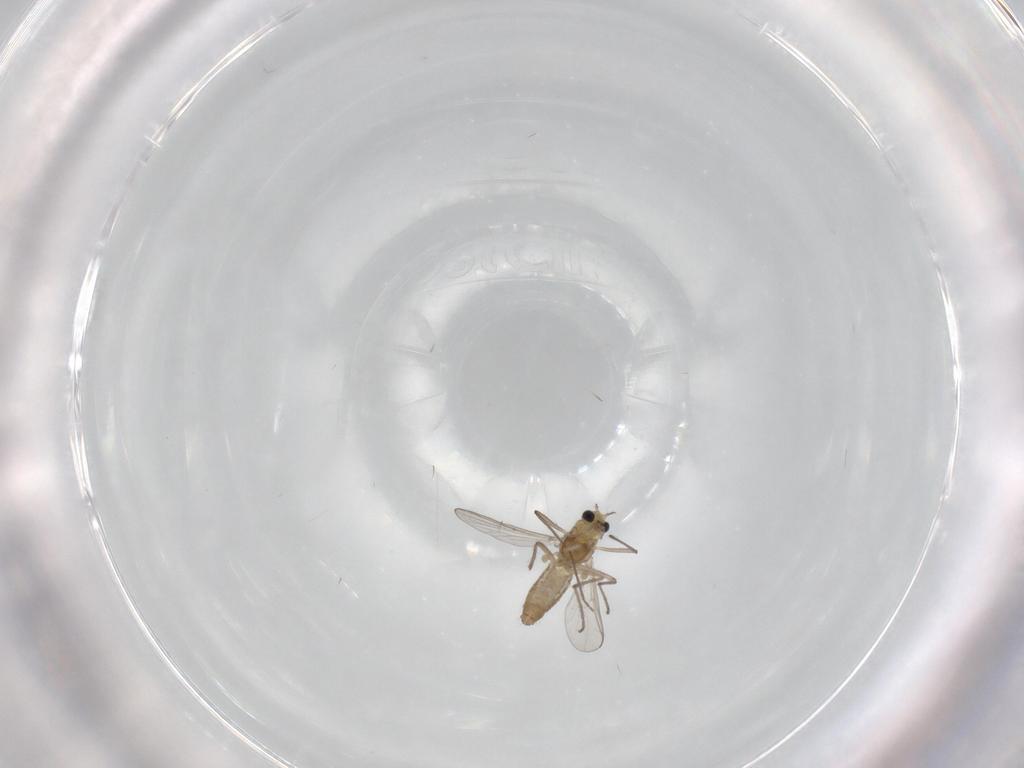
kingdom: Animalia
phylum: Arthropoda
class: Insecta
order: Diptera
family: Chironomidae
